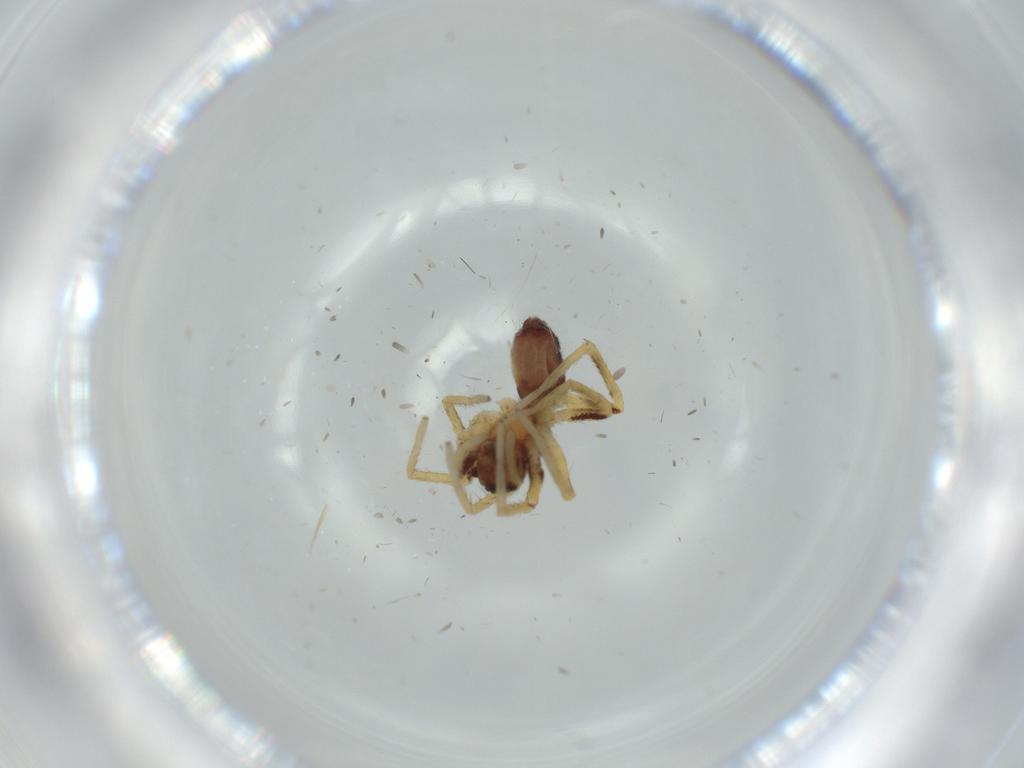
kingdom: Animalia
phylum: Arthropoda
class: Arachnida
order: Araneae
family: Corinnidae
